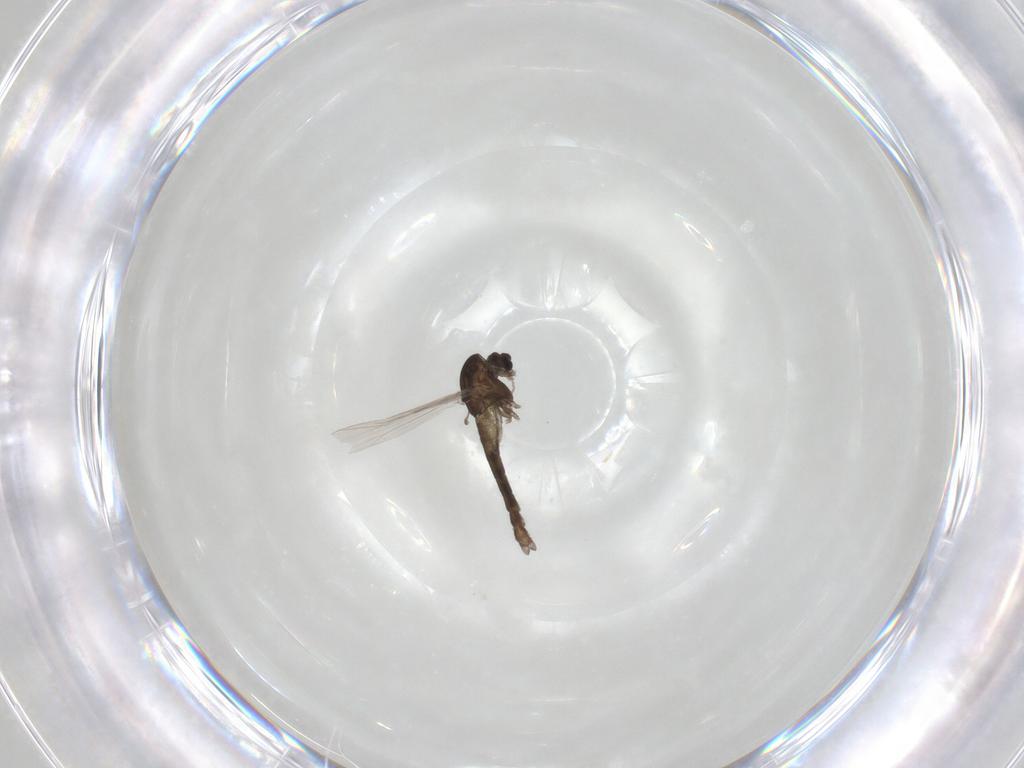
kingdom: Animalia
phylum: Arthropoda
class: Insecta
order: Diptera
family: Chironomidae
